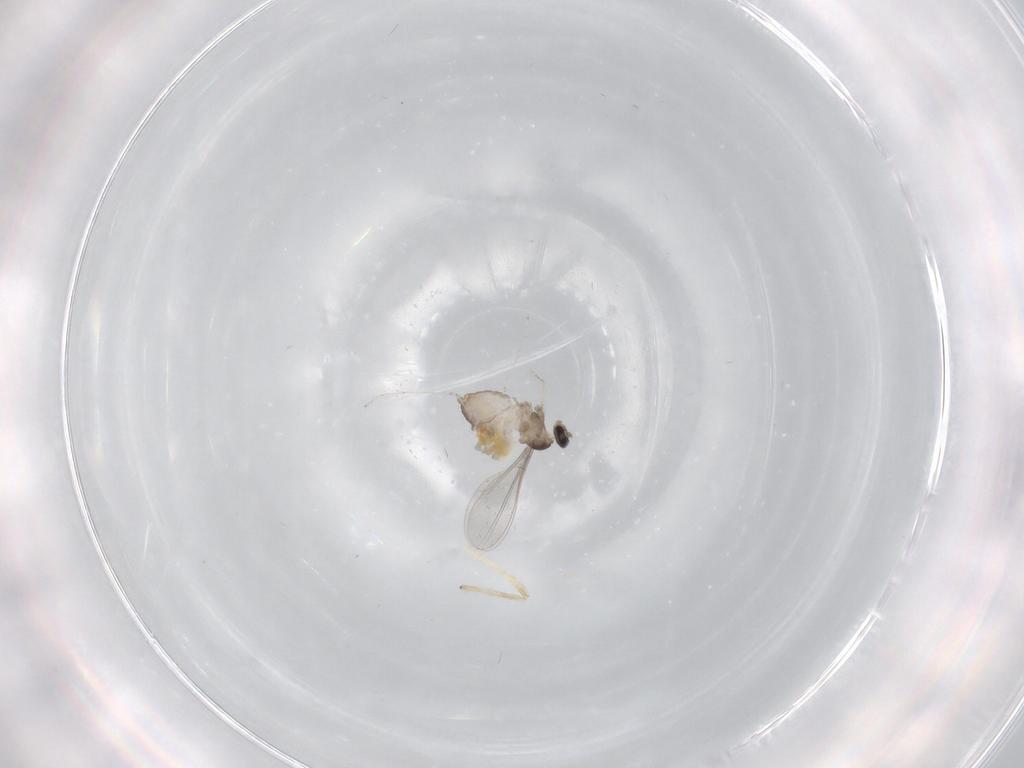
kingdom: Animalia
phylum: Arthropoda
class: Insecta
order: Diptera
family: Cecidomyiidae
